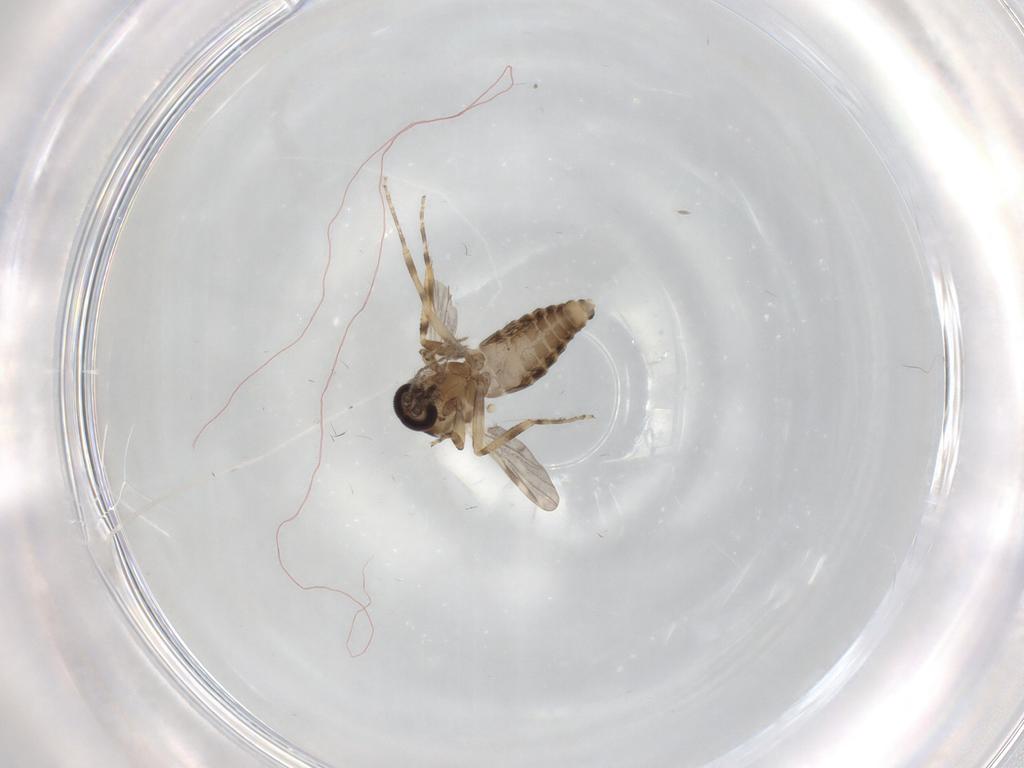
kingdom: Animalia
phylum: Arthropoda
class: Insecta
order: Diptera
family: Ceratopogonidae
